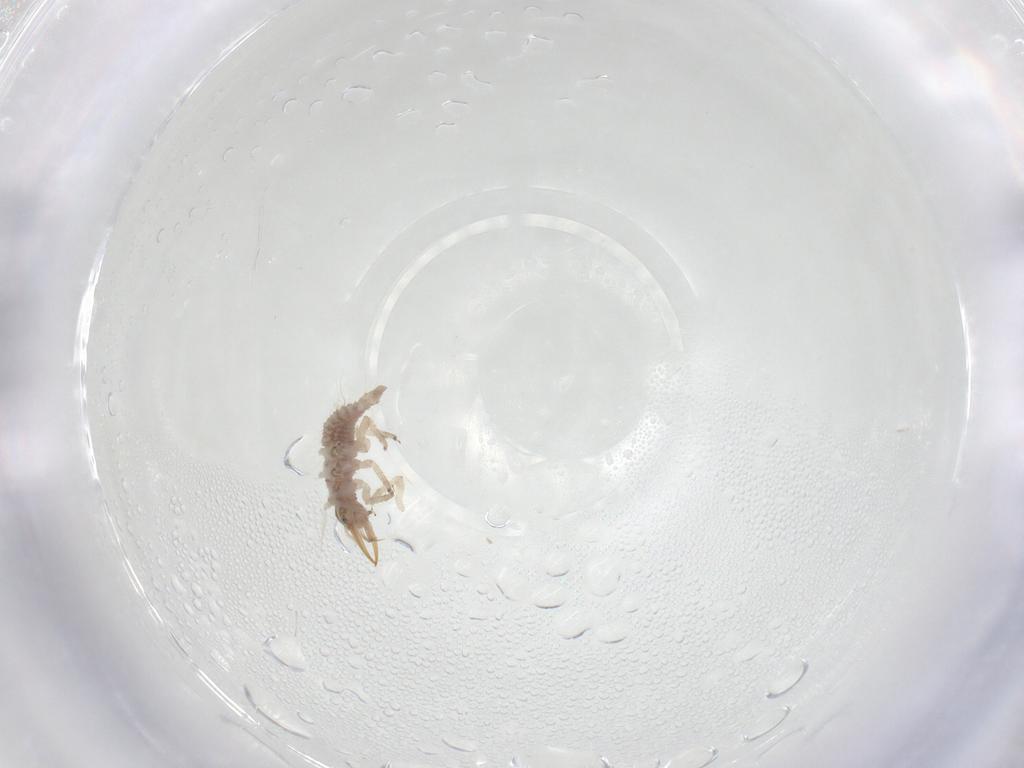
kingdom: Animalia
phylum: Arthropoda
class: Insecta
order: Neuroptera
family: Chrysopidae
